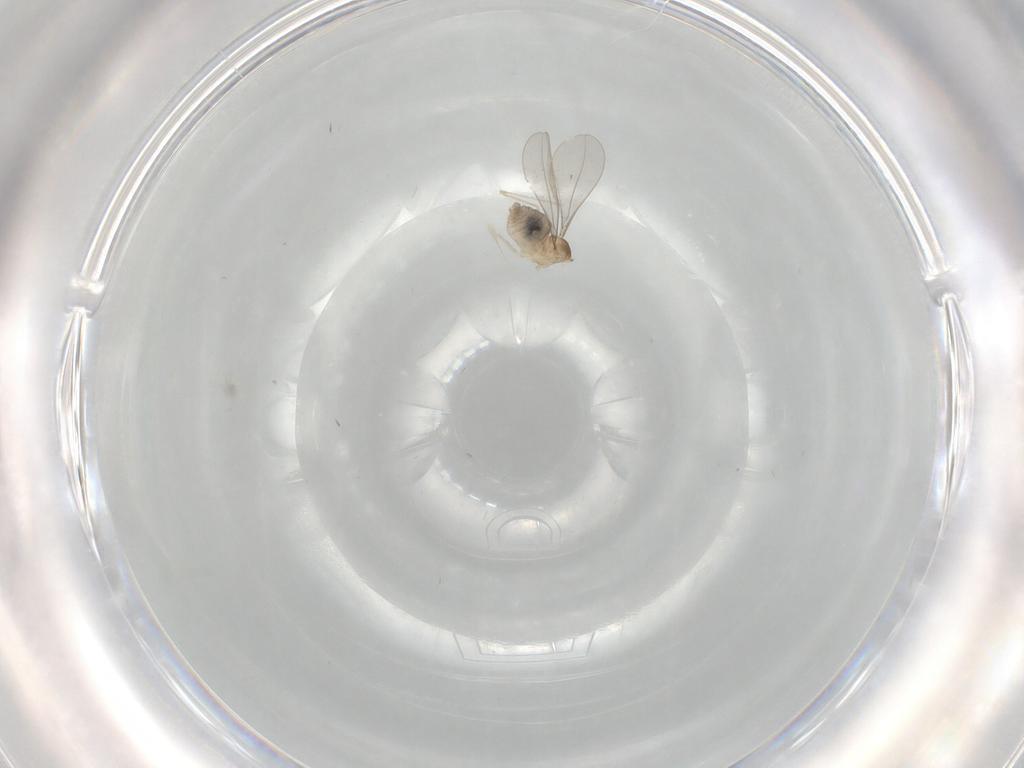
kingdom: Animalia
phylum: Arthropoda
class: Insecta
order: Diptera
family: Cecidomyiidae
